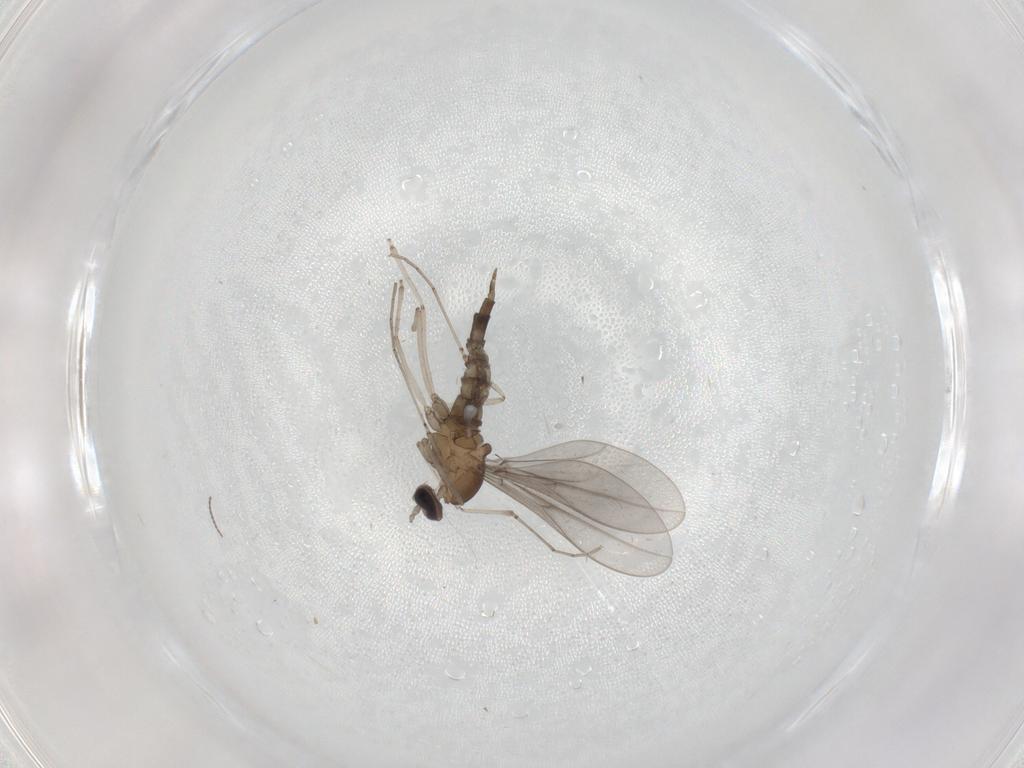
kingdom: Animalia
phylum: Arthropoda
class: Insecta
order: Diptera
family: Cecidomyiidae
